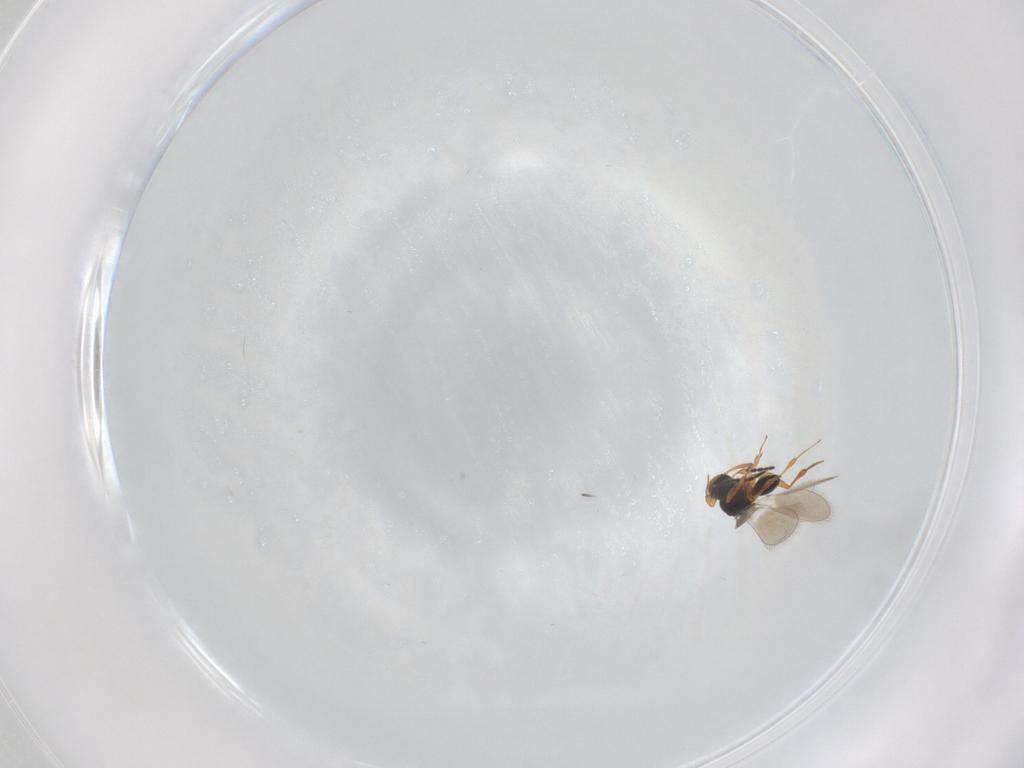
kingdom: Animalia
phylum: Arthropoda
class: Insecta
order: Hymenoptera
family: Platygastridae
